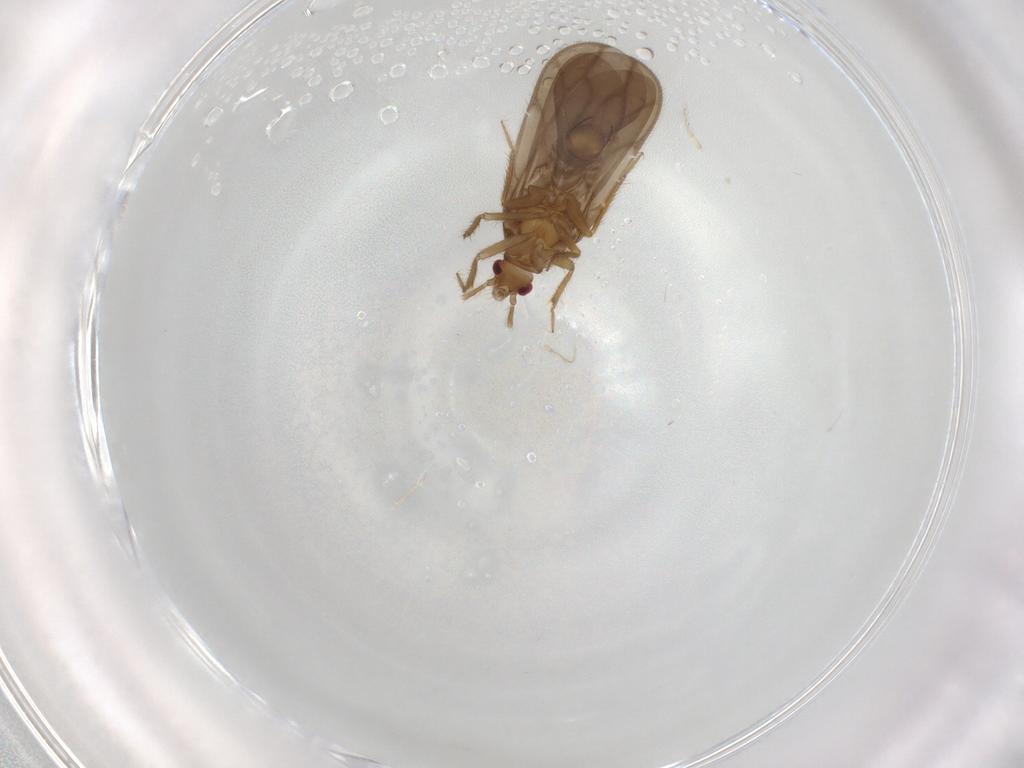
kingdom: Animalia
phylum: Arthropoda
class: Insecta
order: Hemiptera
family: Ceratocombidae
